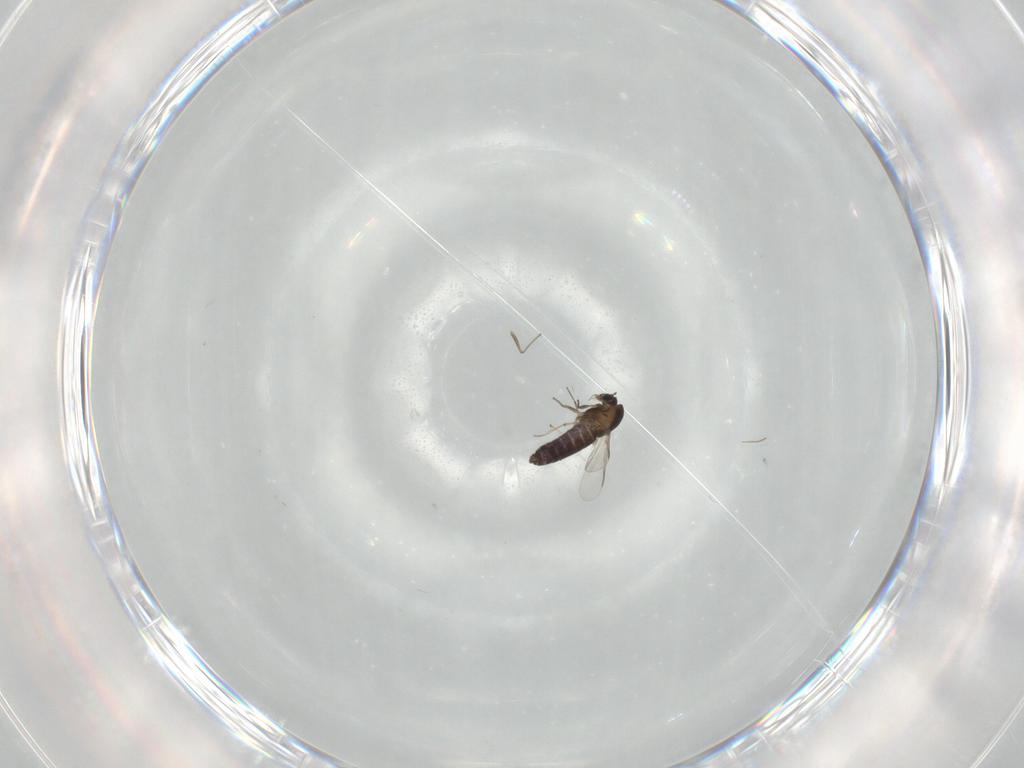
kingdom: Animalia
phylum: Arthropoda
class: Insecta
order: Diptera
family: Chironomidae
